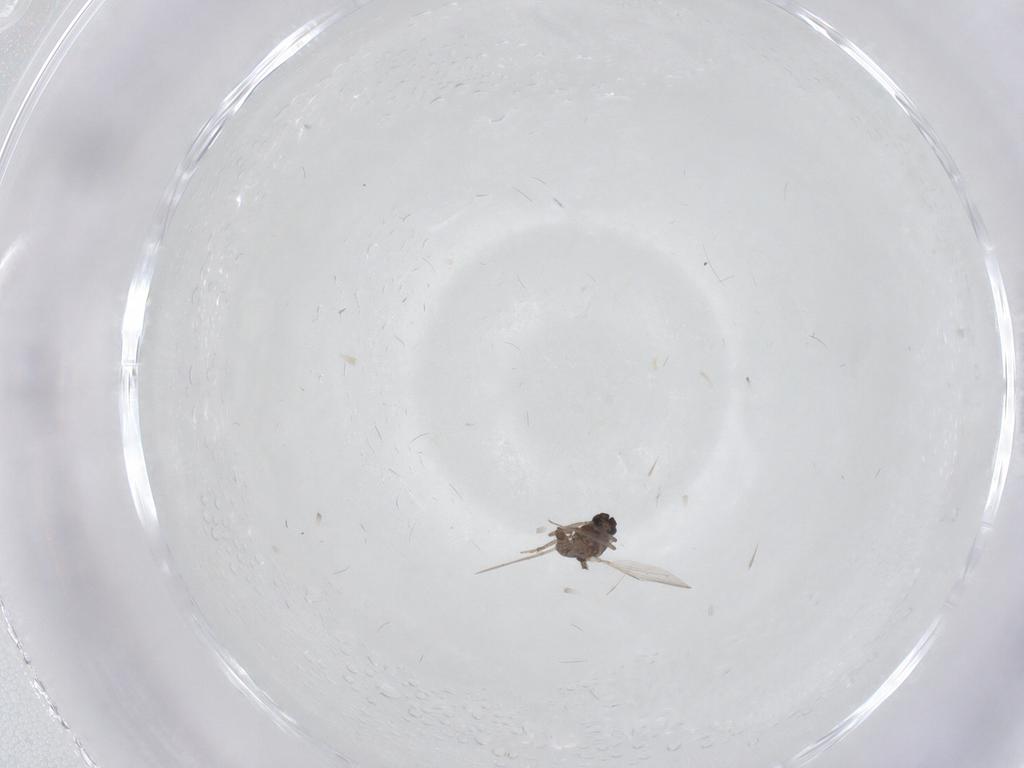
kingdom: Animalia
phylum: Arthropoda
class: Insecta
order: Diptera
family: Ceratopogonidae
